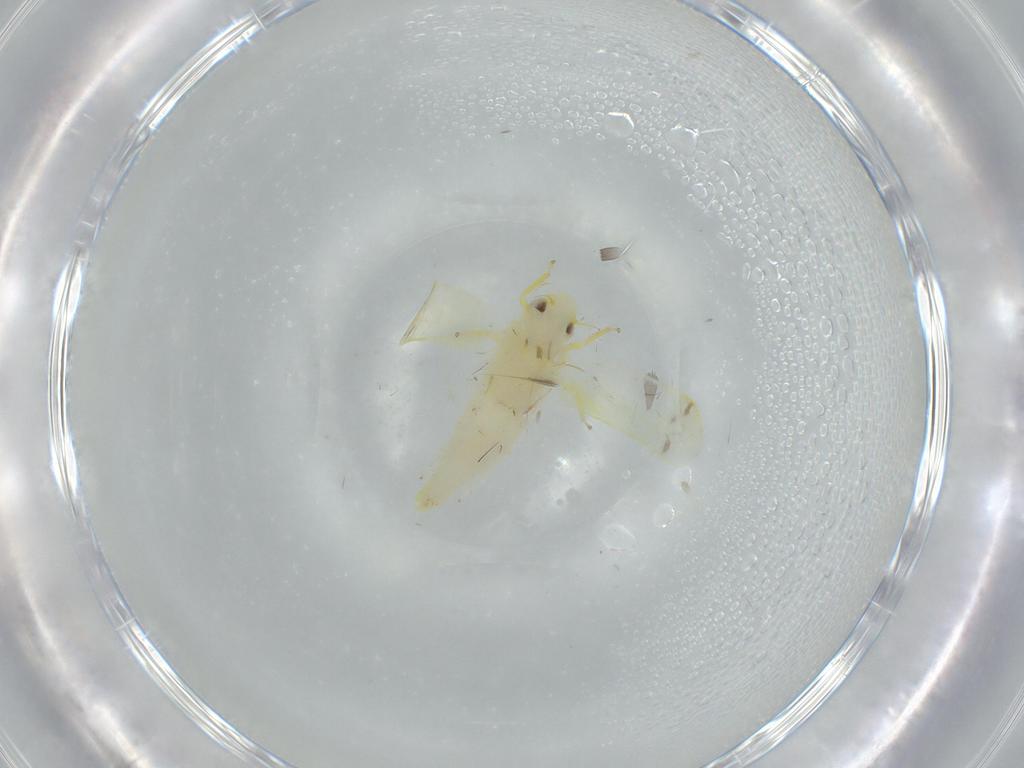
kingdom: Animalia
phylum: Arthropoda
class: Insecta
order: Hemiptera
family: Cicadellidae
